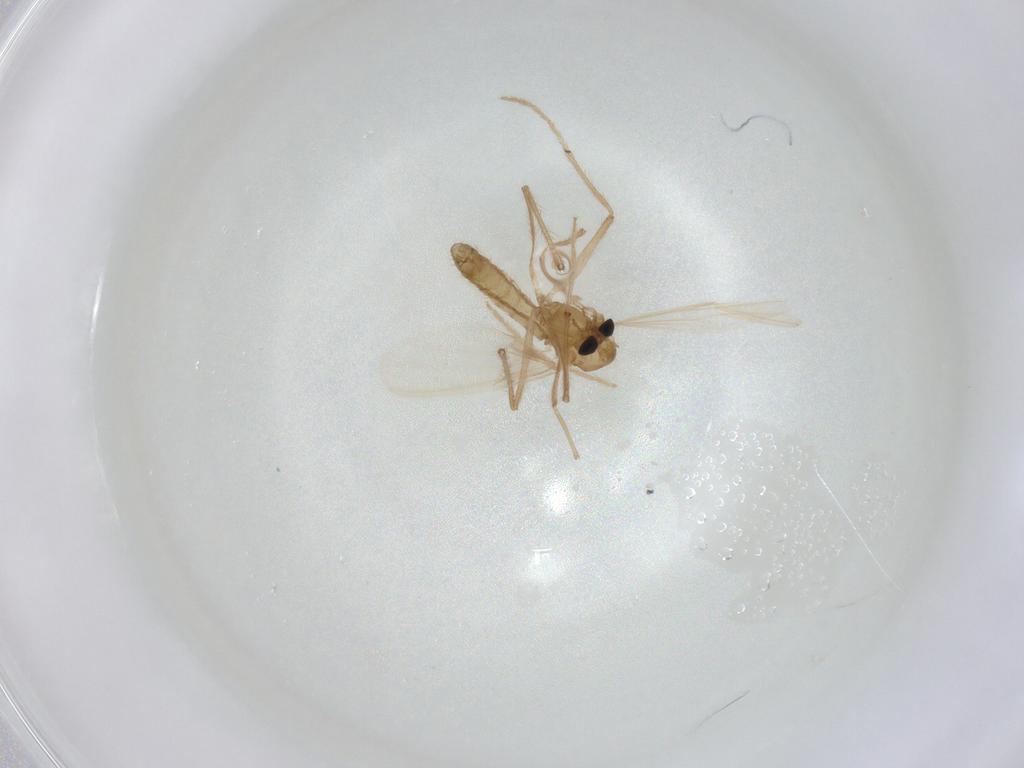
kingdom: Animalia
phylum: Arthropoda
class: Insecta
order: Diptera
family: Chironomidae
